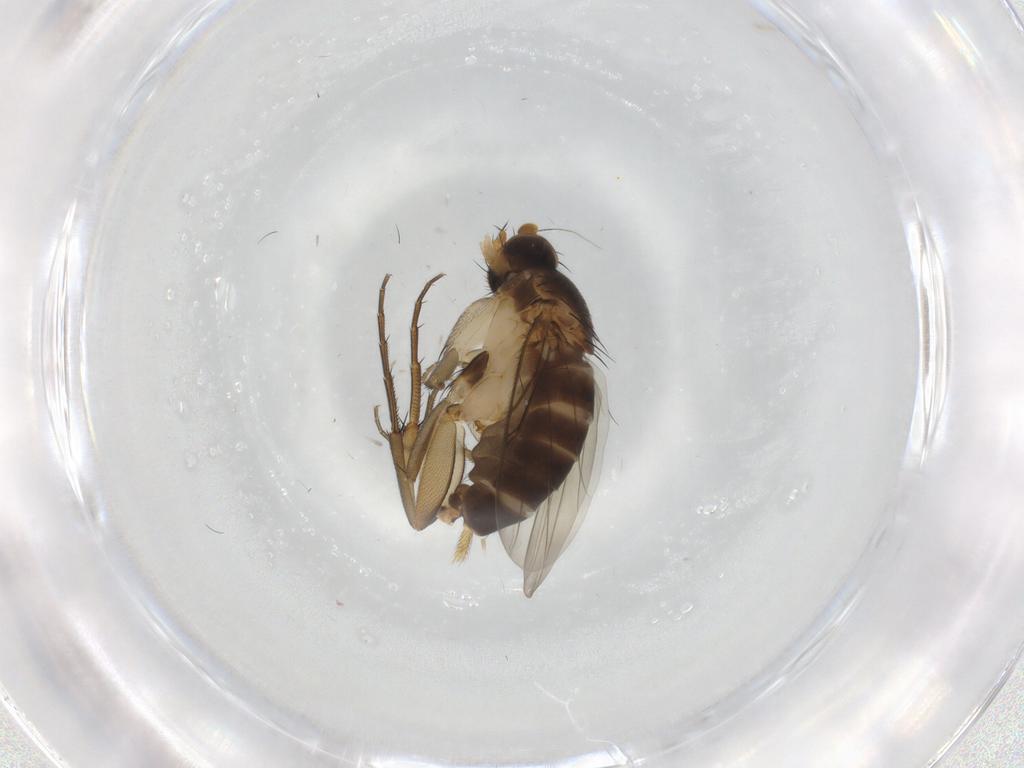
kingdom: Animalia
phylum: Arthropoda
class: Insecta
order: Diptera
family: Phoridae
